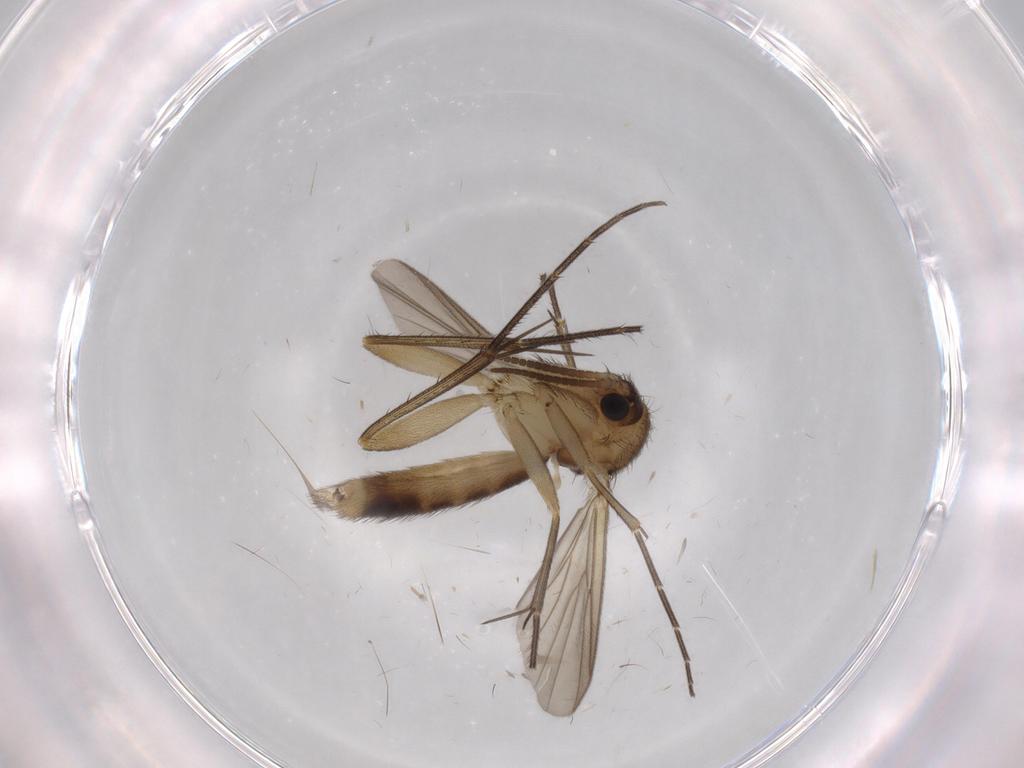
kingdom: Animalia
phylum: Arthropoda
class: Insecta
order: Diptera
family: Mycetophilidae
